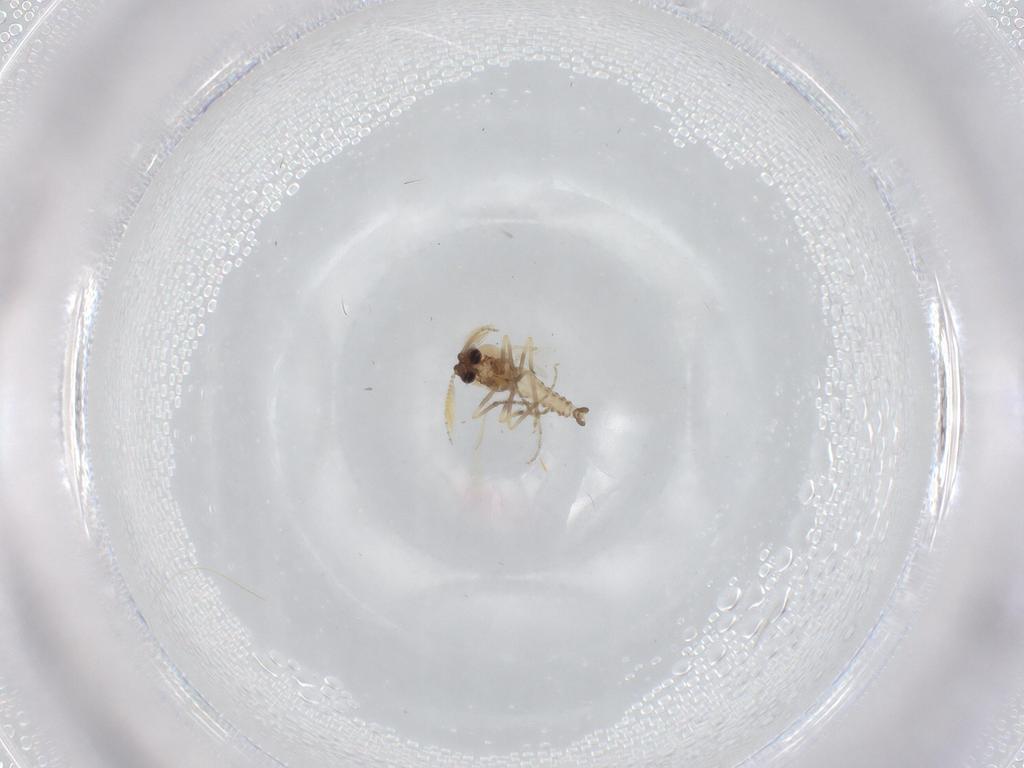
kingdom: Animalia
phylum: Arthropoda
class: Insecta
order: Diptera
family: Ceratopogonidae
